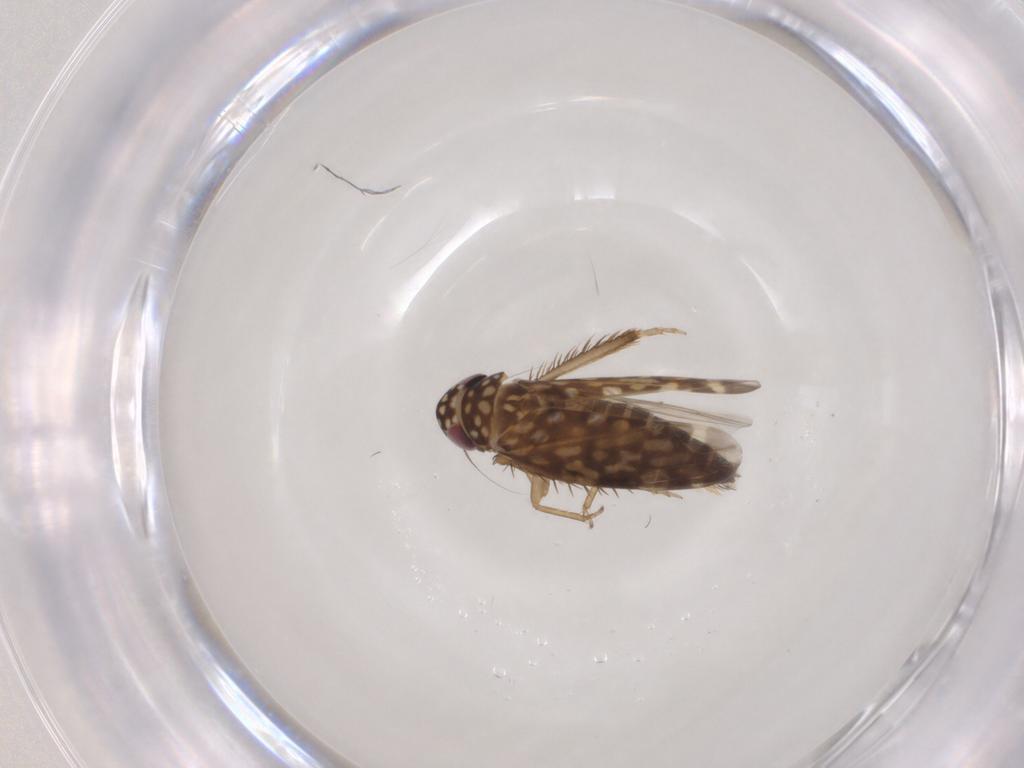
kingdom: Animalia
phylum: Arthropoda
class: Insecta
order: Hemiptera
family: Cicadellidae
